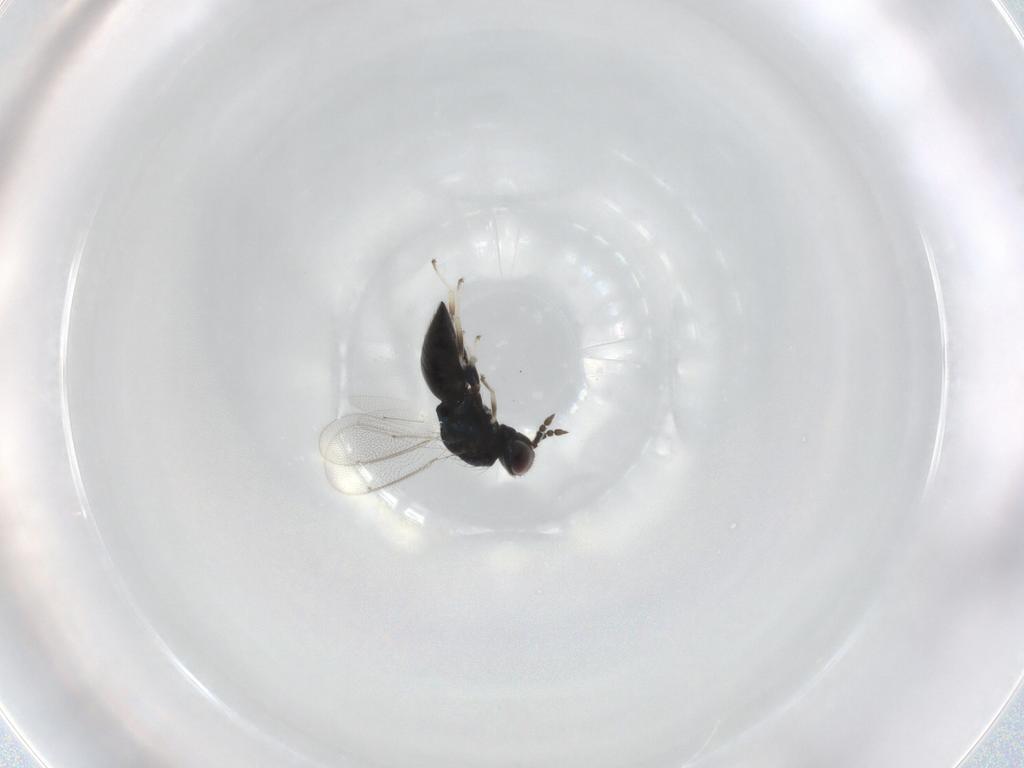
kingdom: Animalia
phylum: Arthropoda
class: Insecta
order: Hymenoptera
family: Eulophidae
